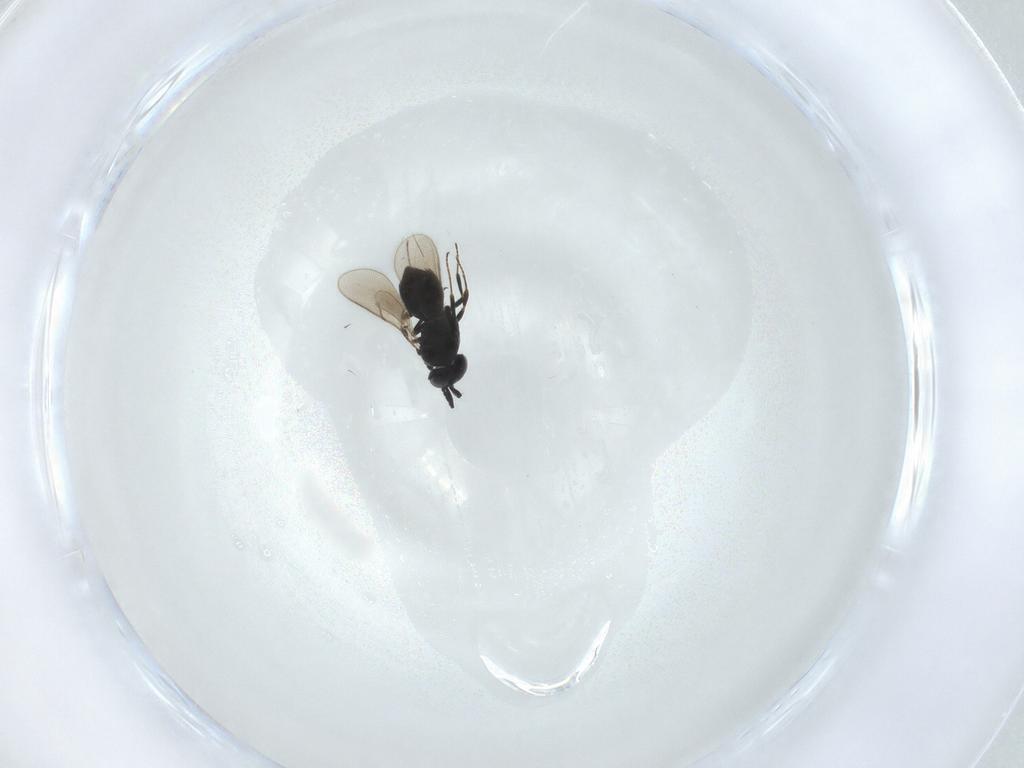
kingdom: Animalia
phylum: Arthropoda
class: Insecta
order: Hymenoptera
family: Scelionidae
